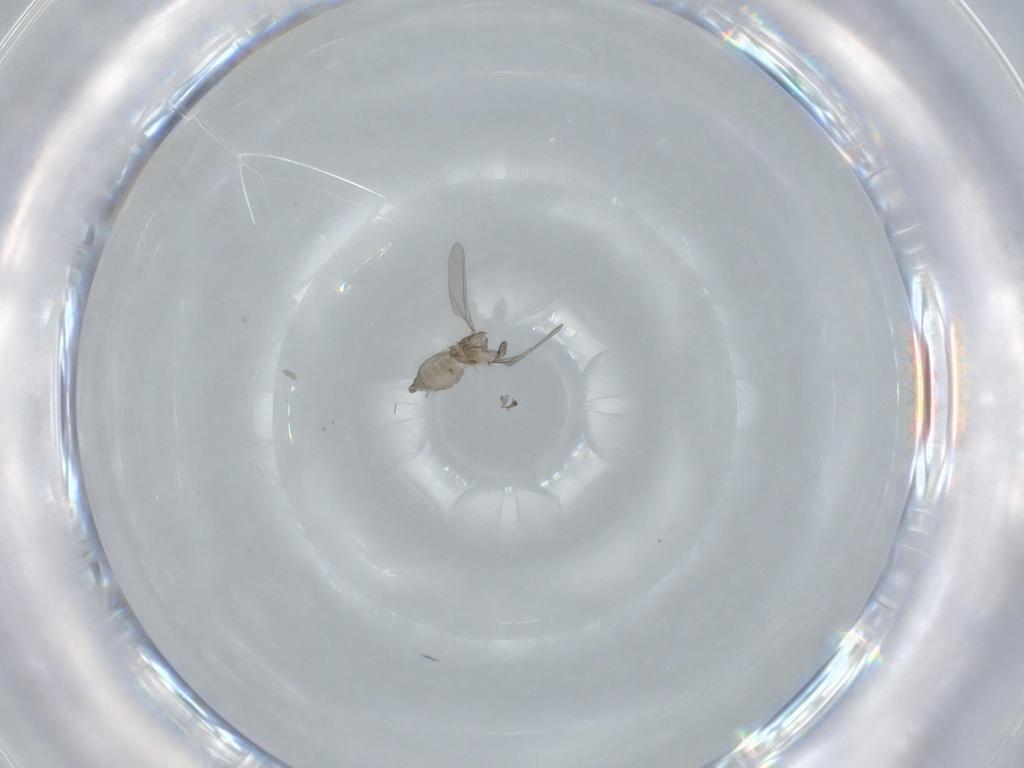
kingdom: Animalia
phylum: Arthropoda
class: Insecta
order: Diptera
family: Cecidomyiidae
